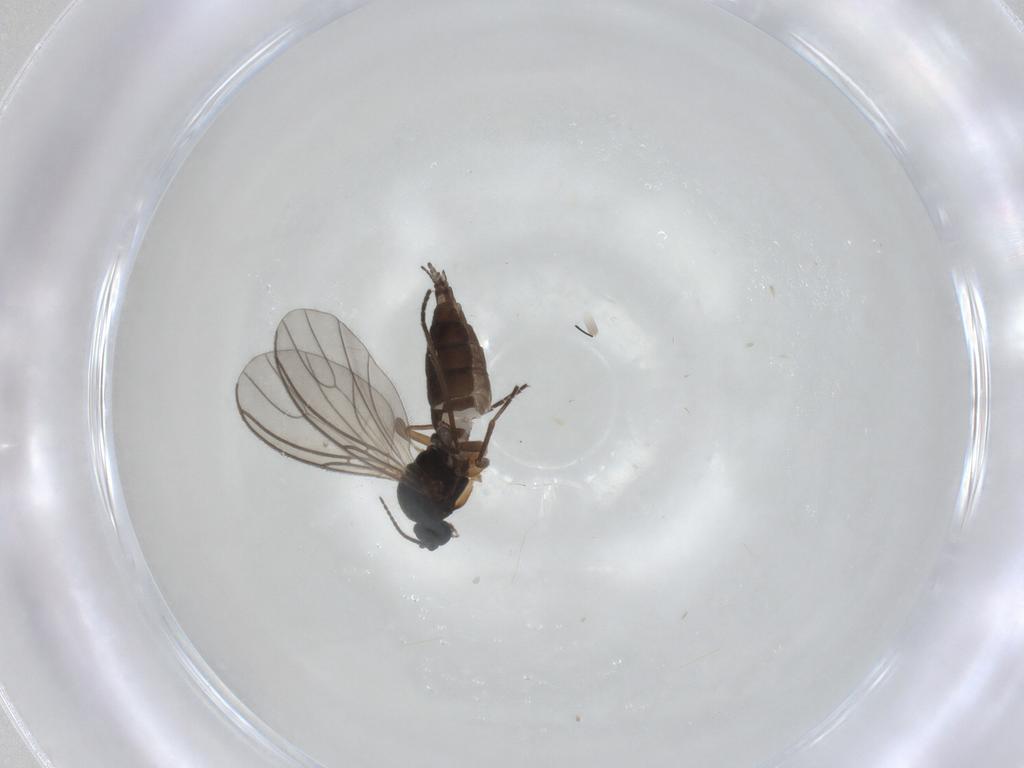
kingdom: Animalia
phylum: Arthropoda
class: Insecta
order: Diptera
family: Sciaridae
